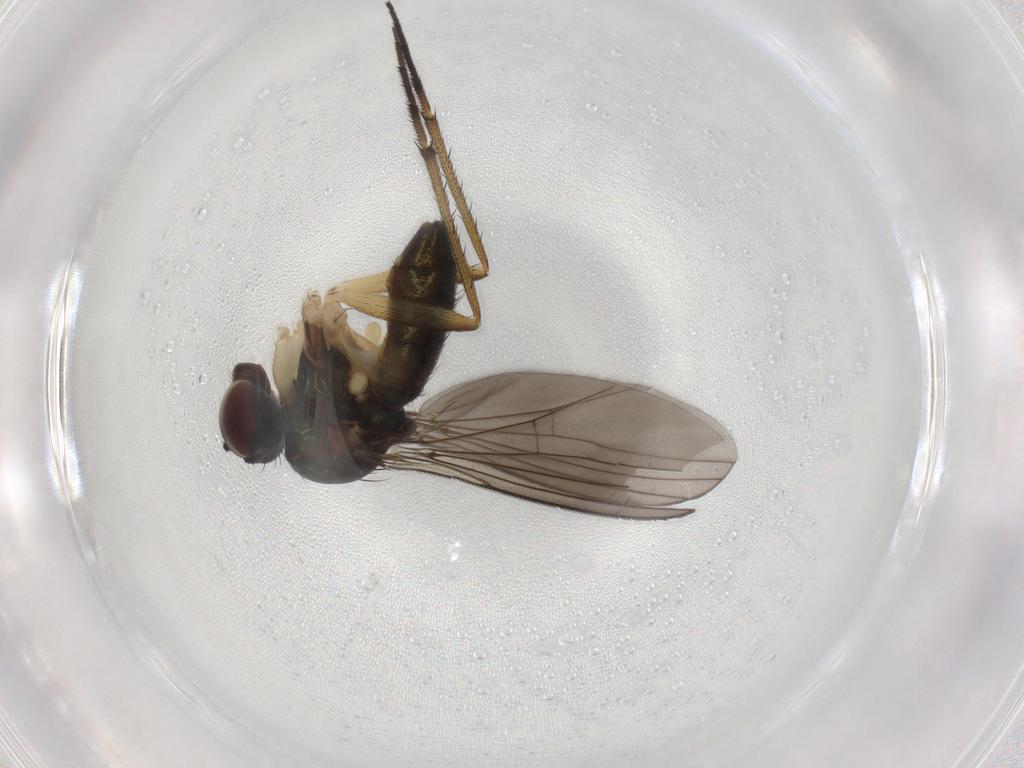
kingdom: Animalia
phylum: Arthropoda
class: Insecta
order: Diptera
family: Dolichopodidae
